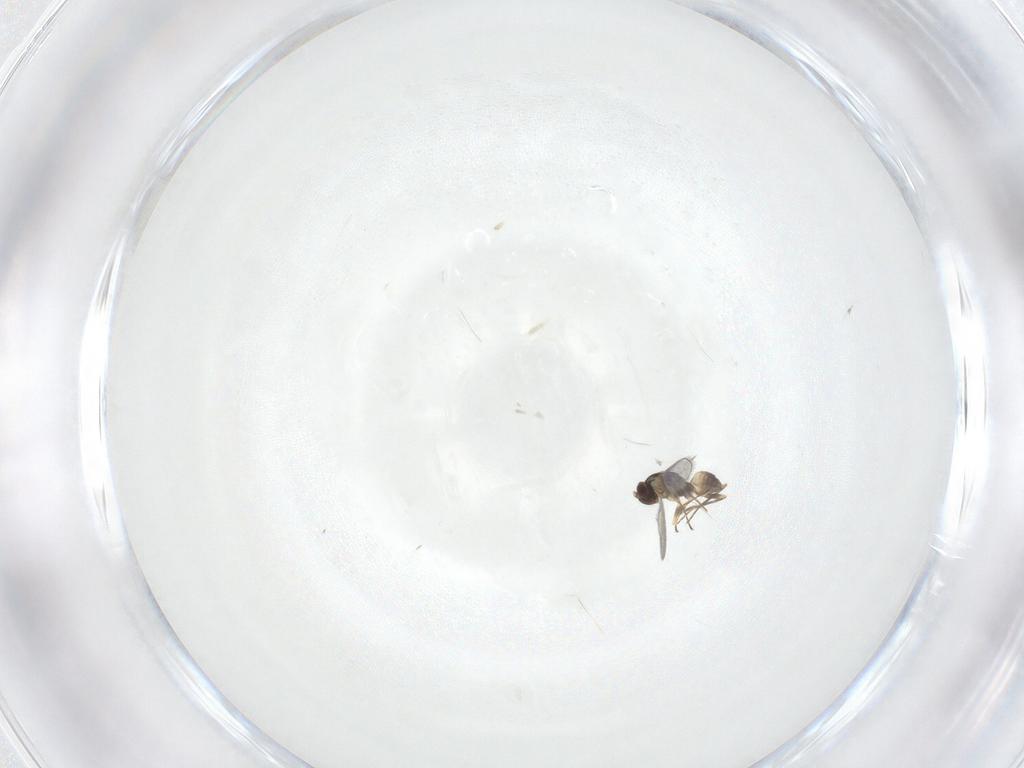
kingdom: Animalia
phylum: Arthropoda
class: Insecta
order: Hymenoptera
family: Mymaridae
